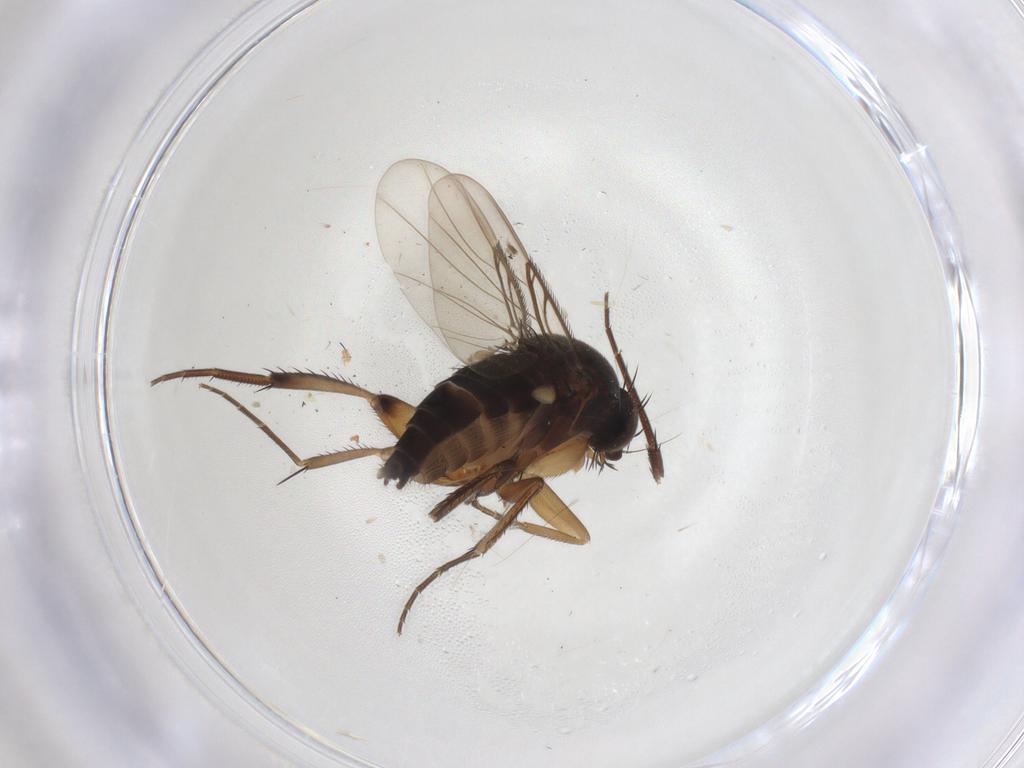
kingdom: Animalia
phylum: Arthropoda
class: Insecta
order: Diptera
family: Phoridae
